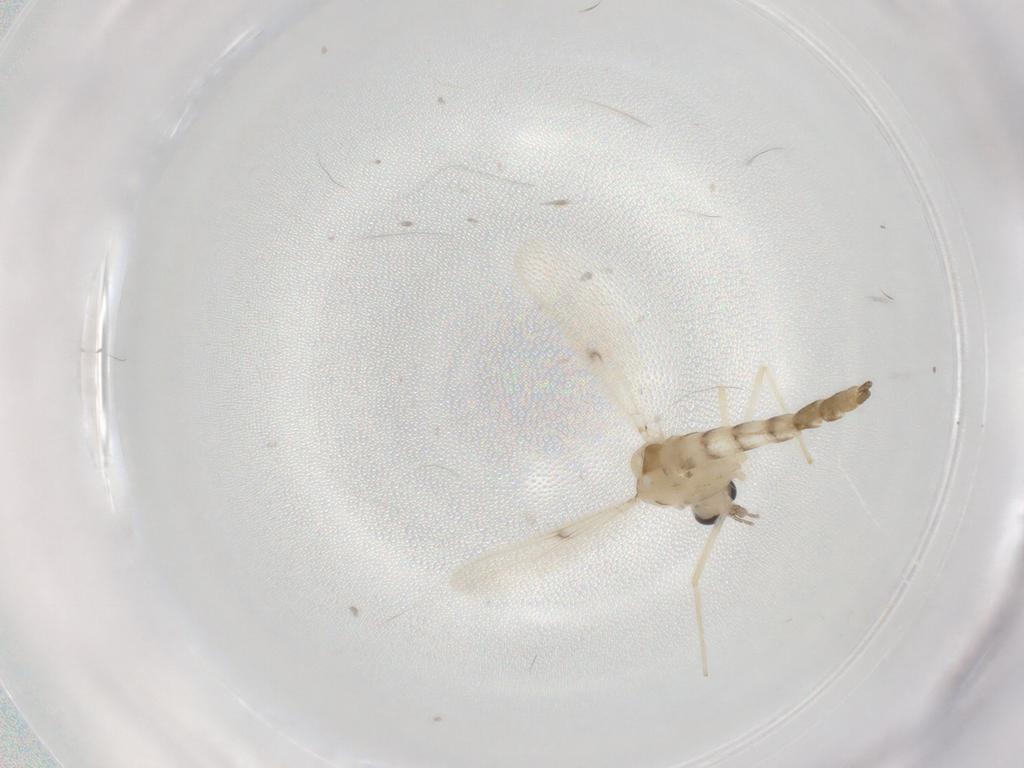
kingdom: Animalia
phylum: Arthropoda
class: Insecta
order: Diptera
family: Chironomidae
